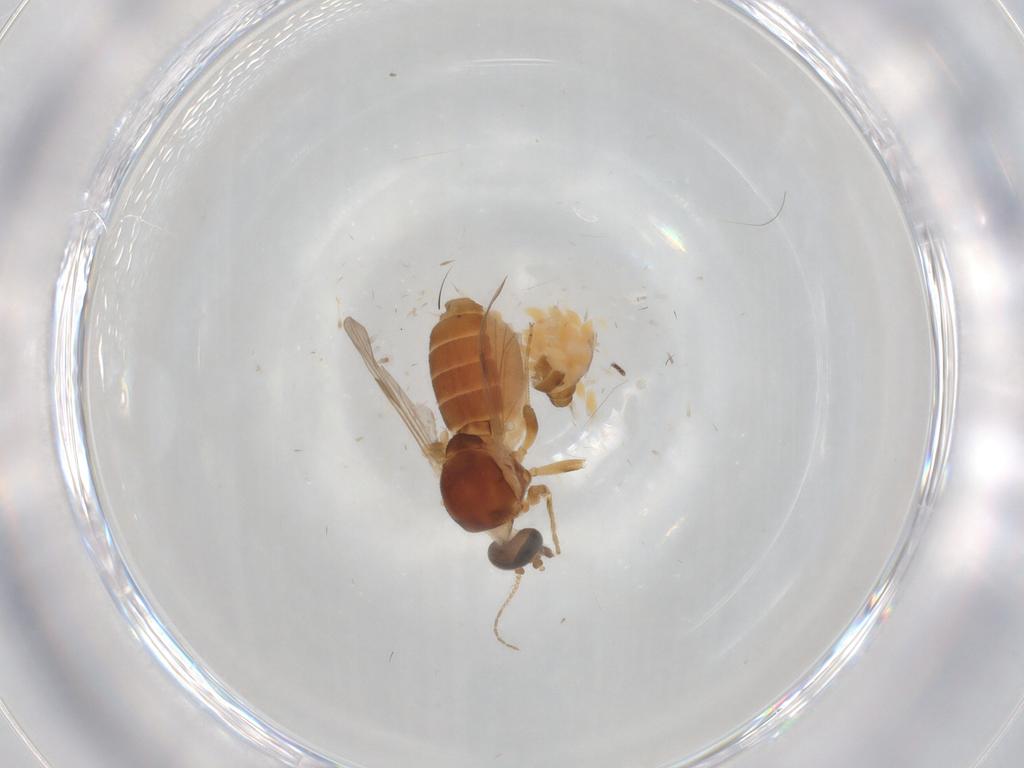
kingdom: Animalia
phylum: Arthropoda
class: Insecta
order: Diptera
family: Ceratopogonidae
